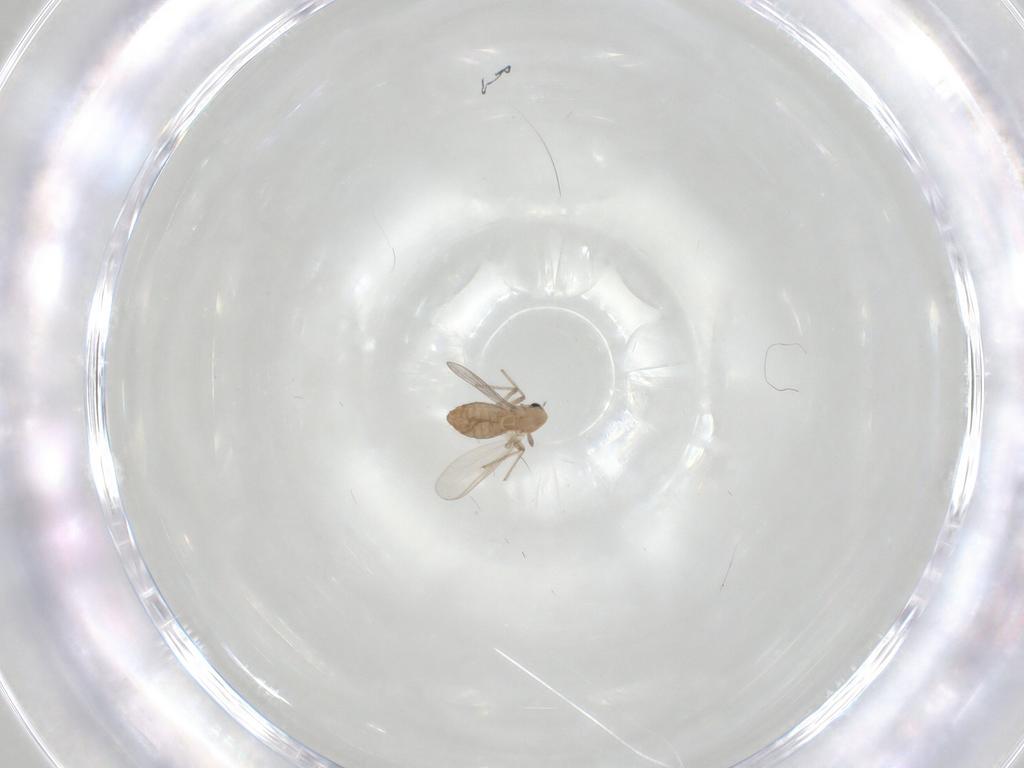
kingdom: Animalia
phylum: Arthropoda
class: Insecta
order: Diptera
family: Chironomidae
